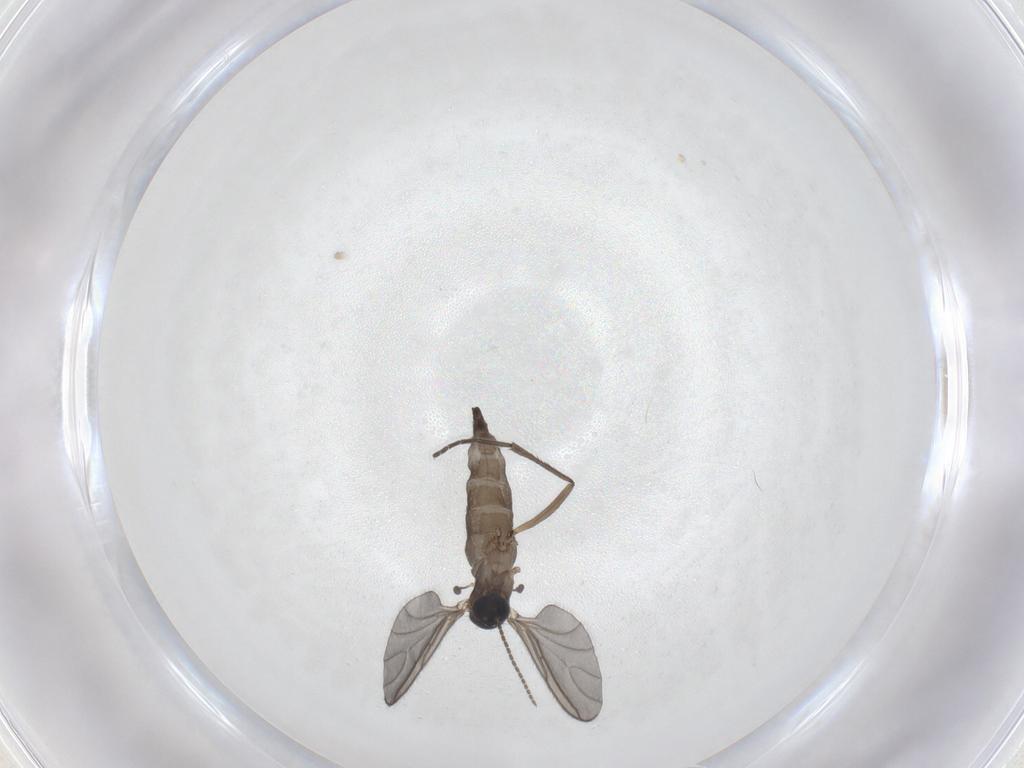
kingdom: Animalia
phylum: Arthropoda
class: Insecta
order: Diptera
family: Sciaridae
